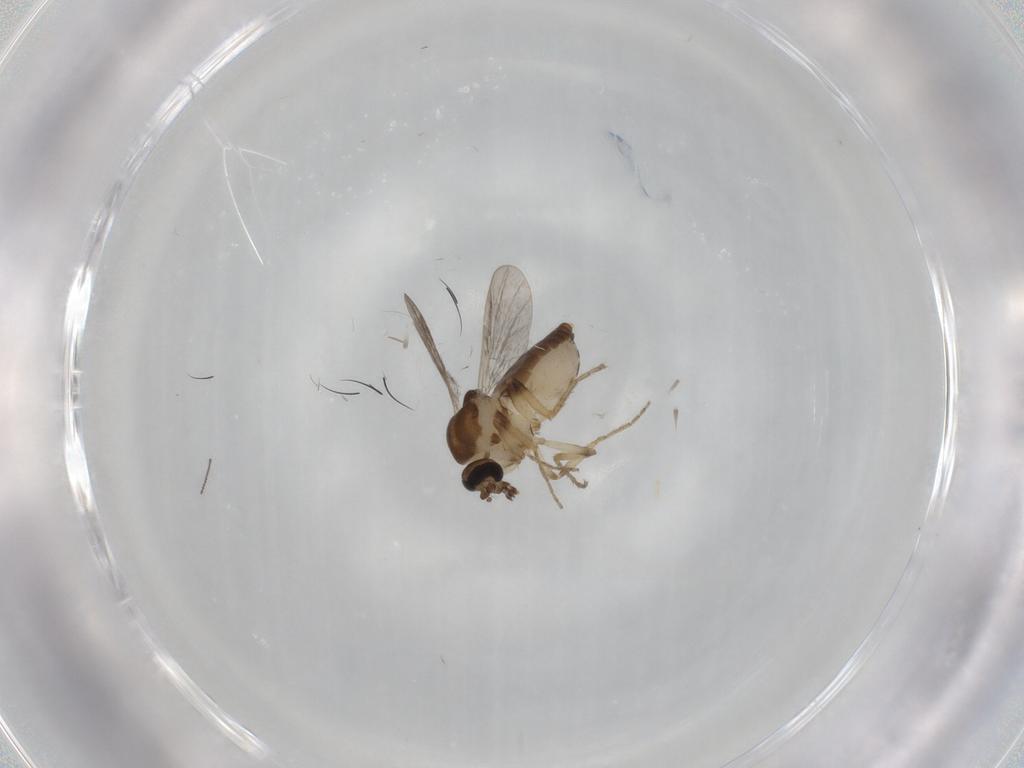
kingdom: Animalia
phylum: Arthropoda
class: Insecta
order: Diptera
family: Ceratopogonidae
